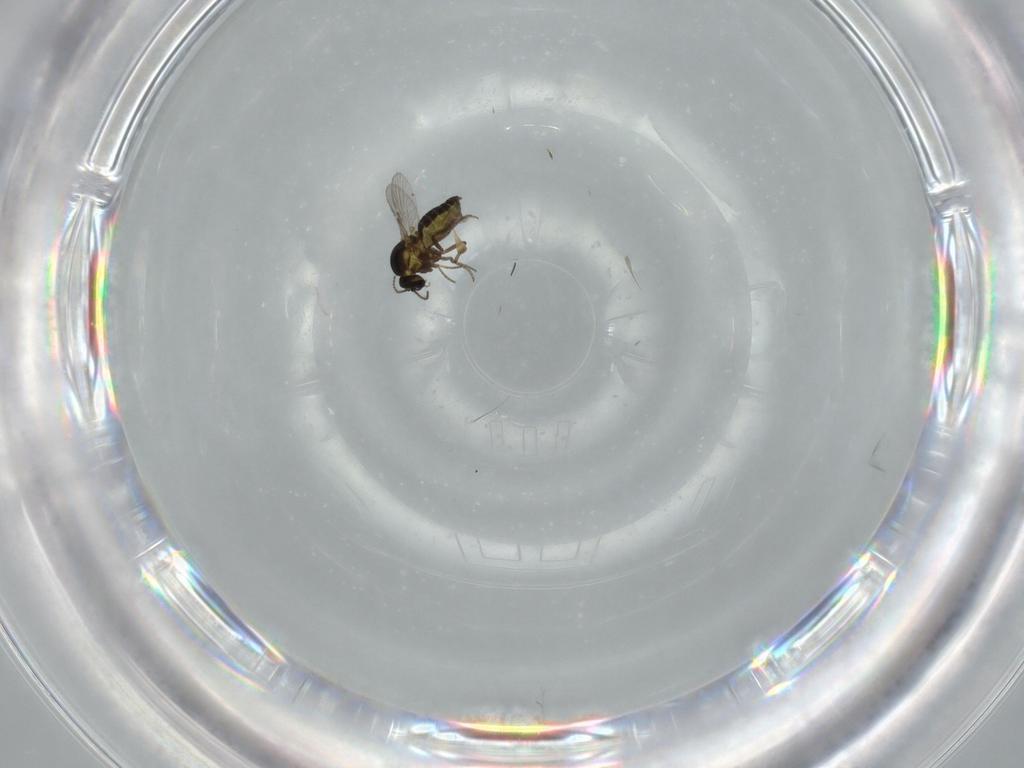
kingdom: Animalia
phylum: Arthropoda
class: Insecta
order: Diptera
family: Ceratopogonidae
